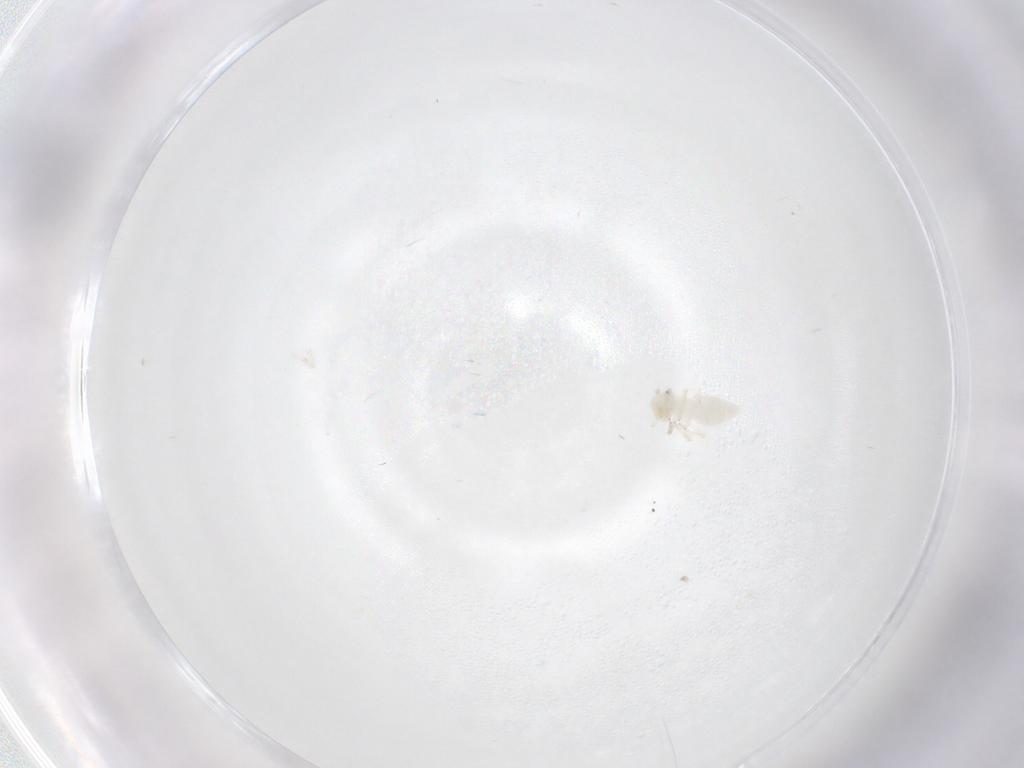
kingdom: Animalia
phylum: Arthropoda
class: Insecta
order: Psocodea
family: Caeciliusidae
